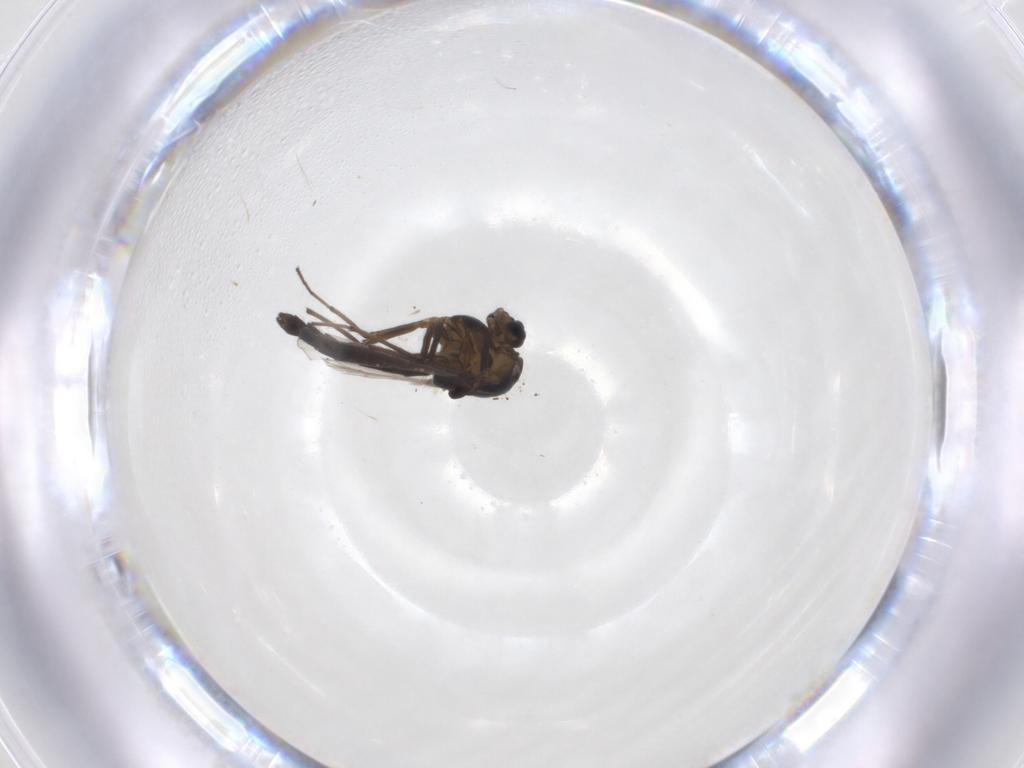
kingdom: Animalia
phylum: Arthropoda
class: Insecta
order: Diptera
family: Chironomidae
